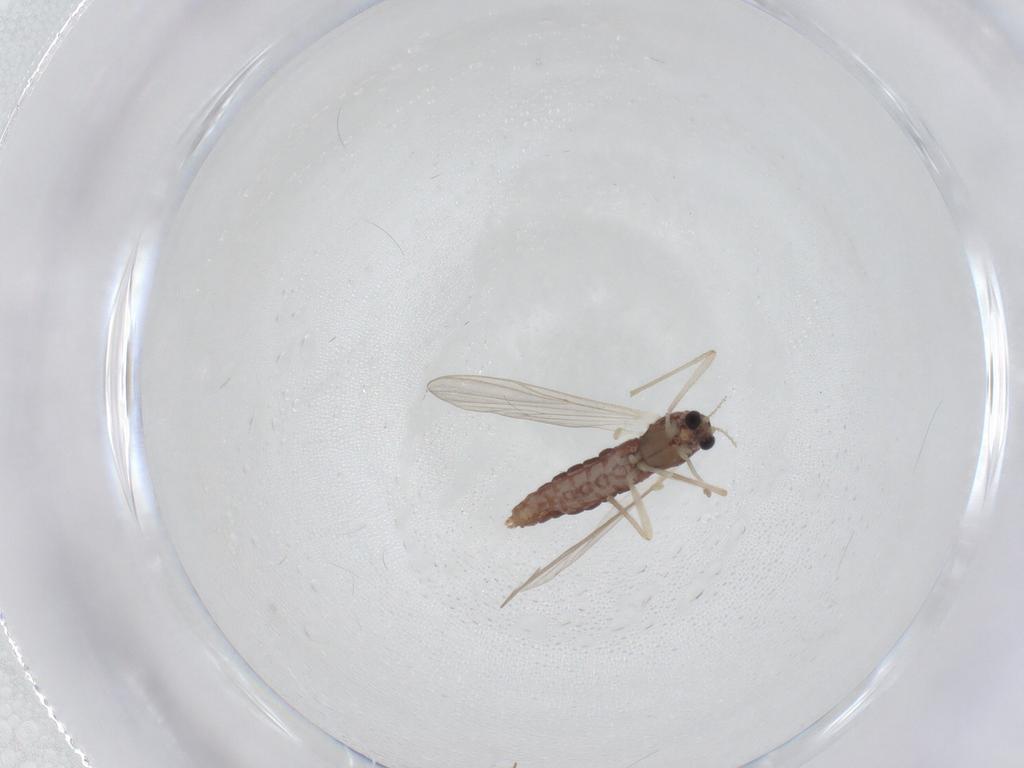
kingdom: Animalia
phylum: Arthropoda
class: Insecta
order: Diptera
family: Chironomidae
